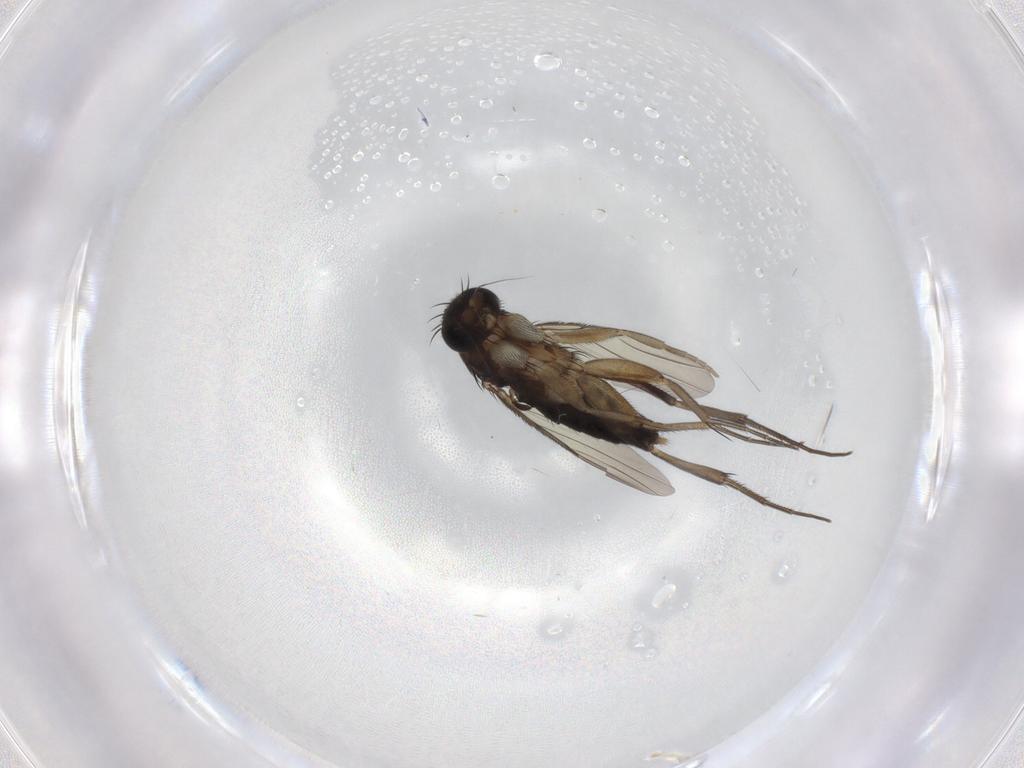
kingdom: Animalia
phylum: Arthropoda
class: Insecta
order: Diptera
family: Phoridae
